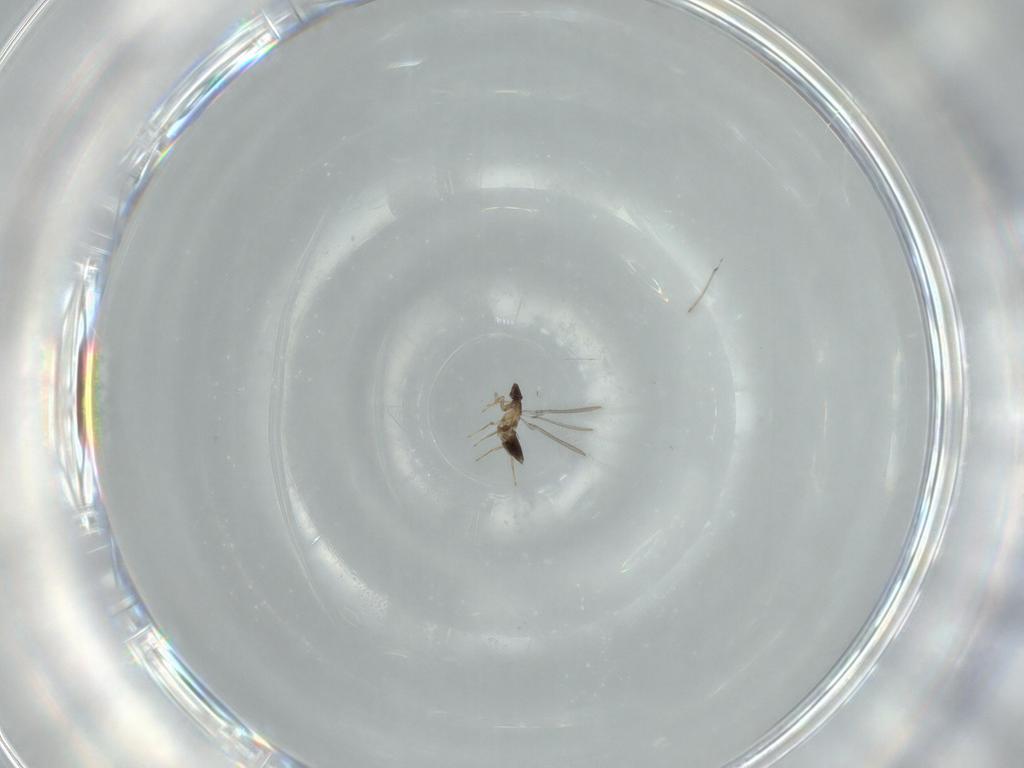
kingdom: Animalia
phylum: Arthropoda
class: Insecta
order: Hymenoptera
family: Mymaridae
